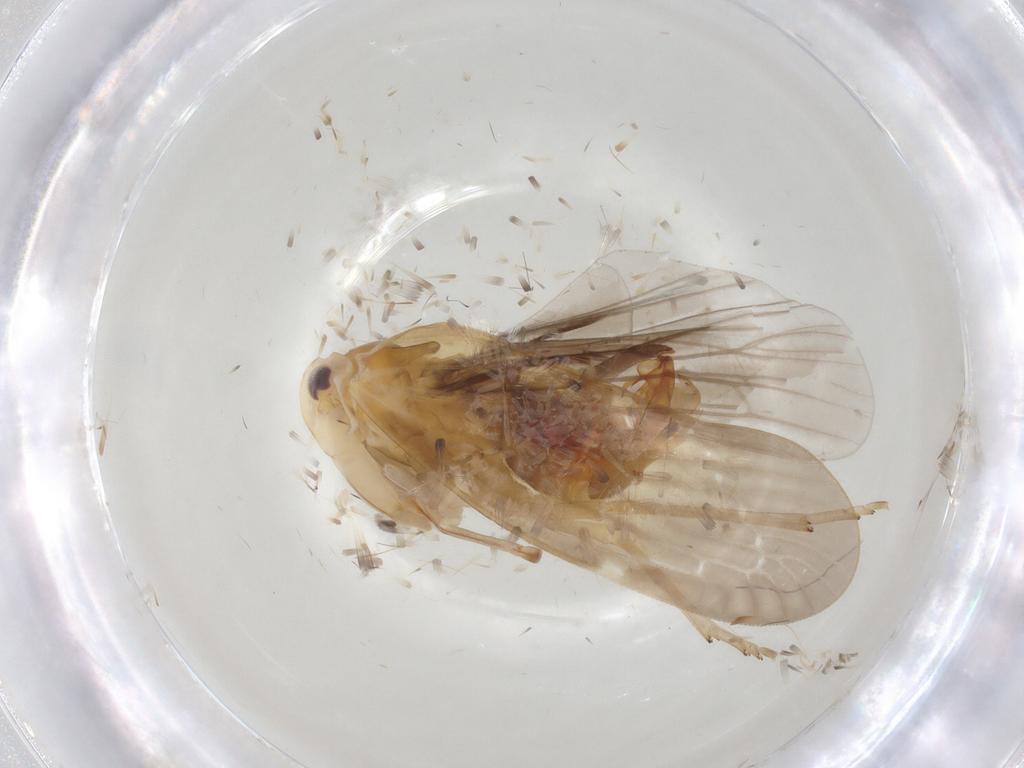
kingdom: Animalia
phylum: Arthropoda
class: Insecta
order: Hemiptera
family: Derbidae
